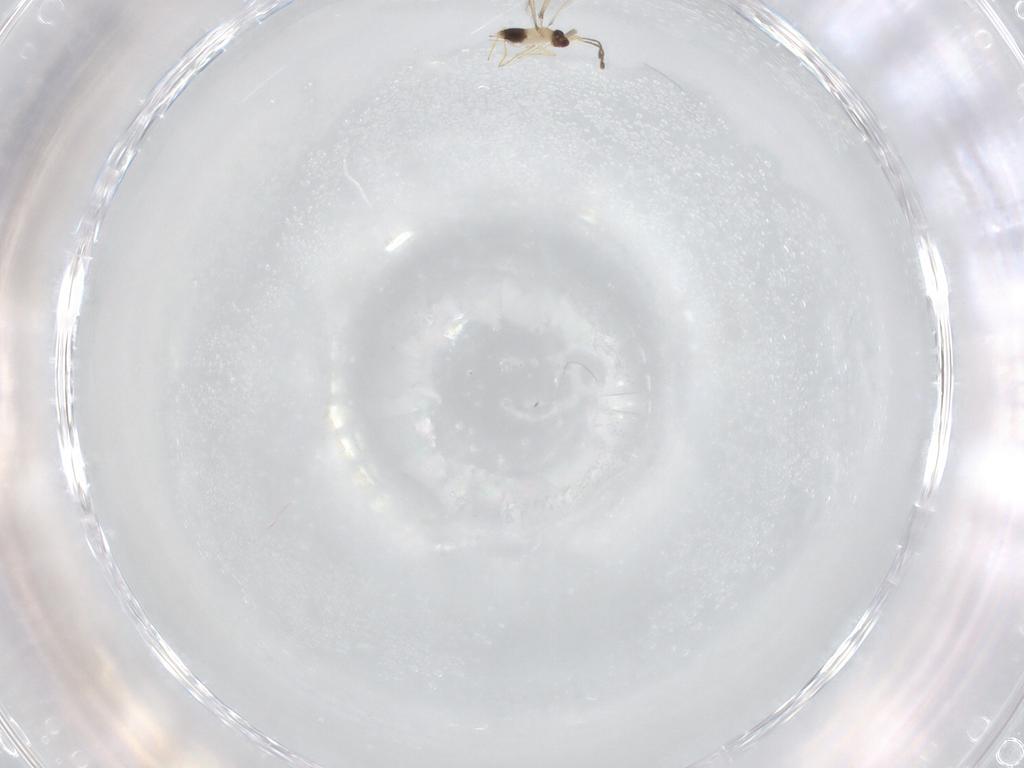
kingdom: Animalia
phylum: Arthropoda
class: Insecta
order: Hymenoptera
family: Mymaridae
